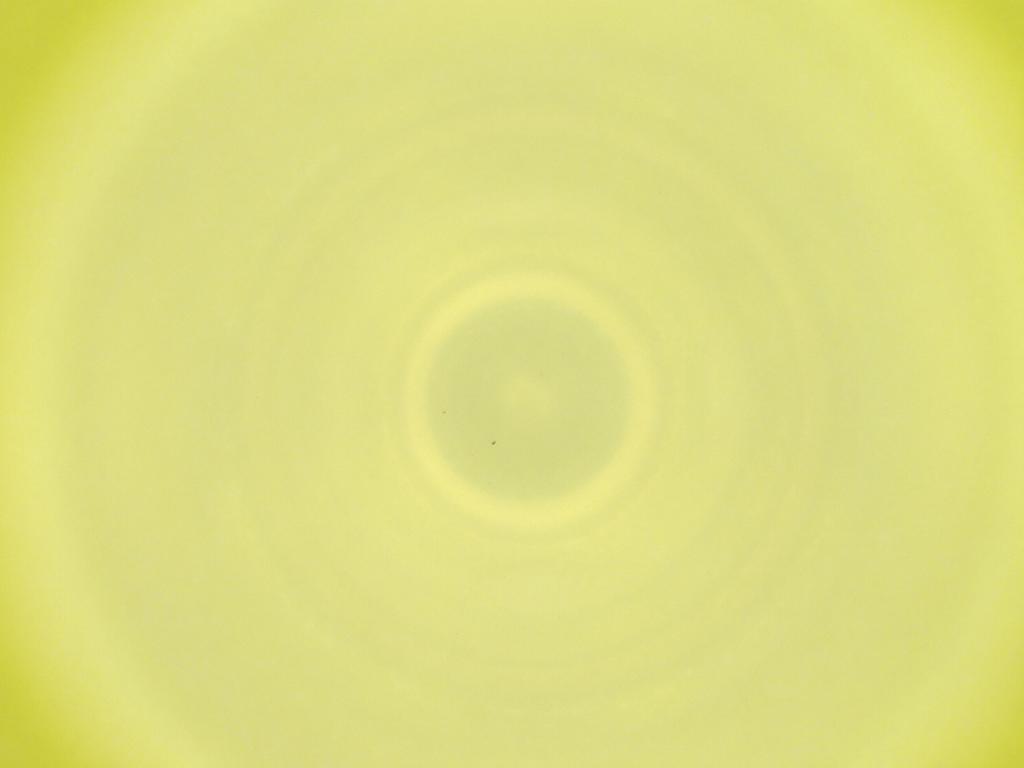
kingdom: Animalia
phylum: Arthropoda
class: Insecta
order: Diptera
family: Cecidomyiidae
